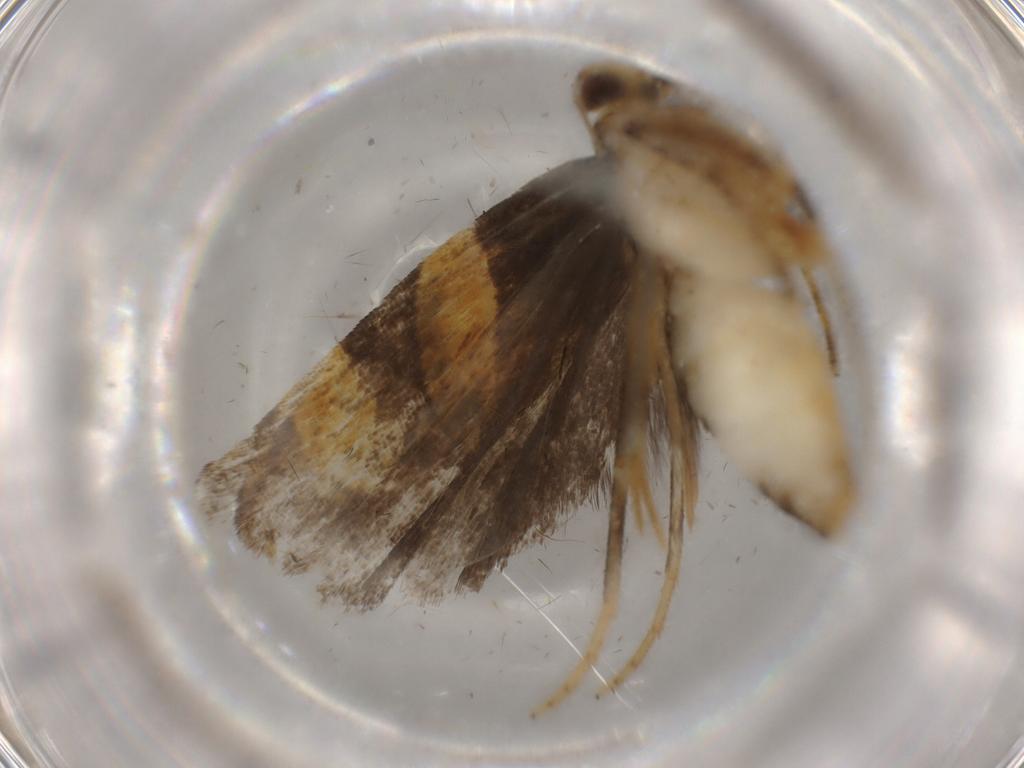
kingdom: Animalia
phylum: Arthropoda
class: Insecta
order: Lepidoptera
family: Gelechiidae
